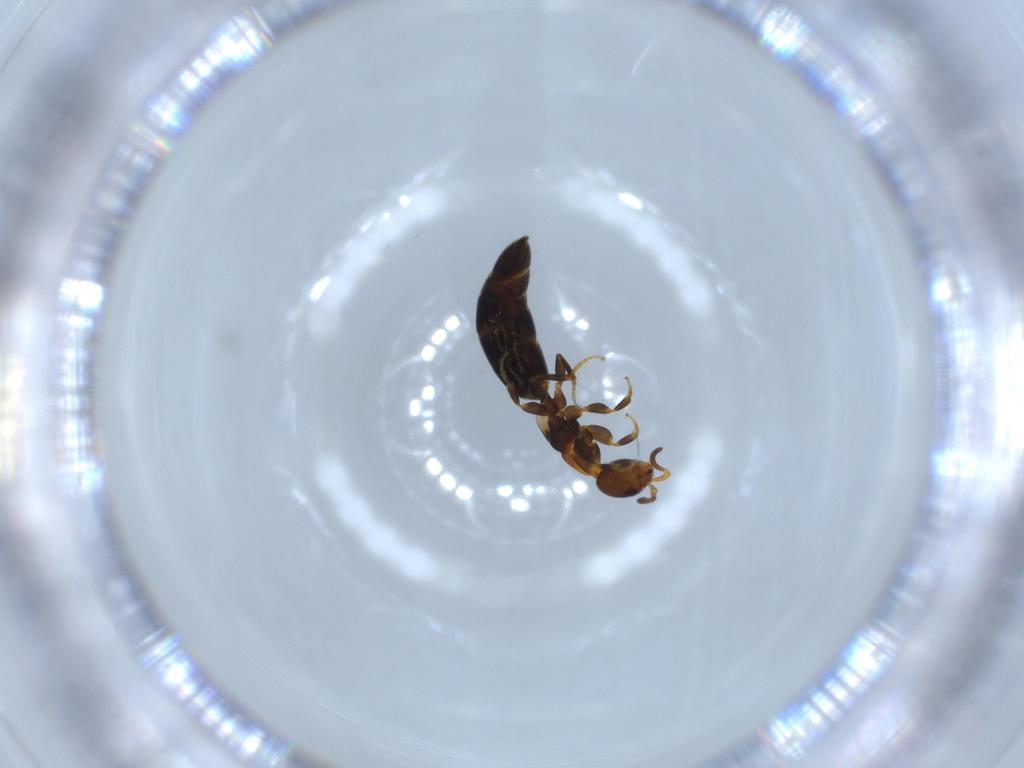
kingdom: Animalia
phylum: Arthropoda
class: Insecta
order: Hymenoptera
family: Bethylidae
